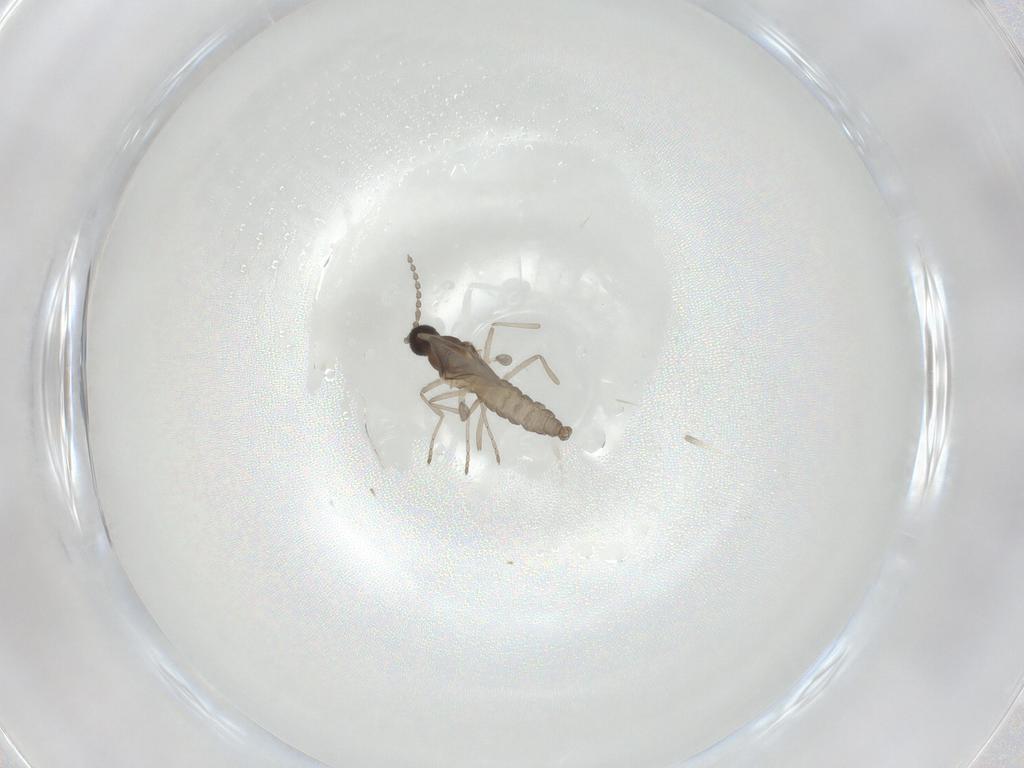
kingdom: Animalia
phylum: Arthropoda
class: Insecta
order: Diptera
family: Cecidomyiidae
